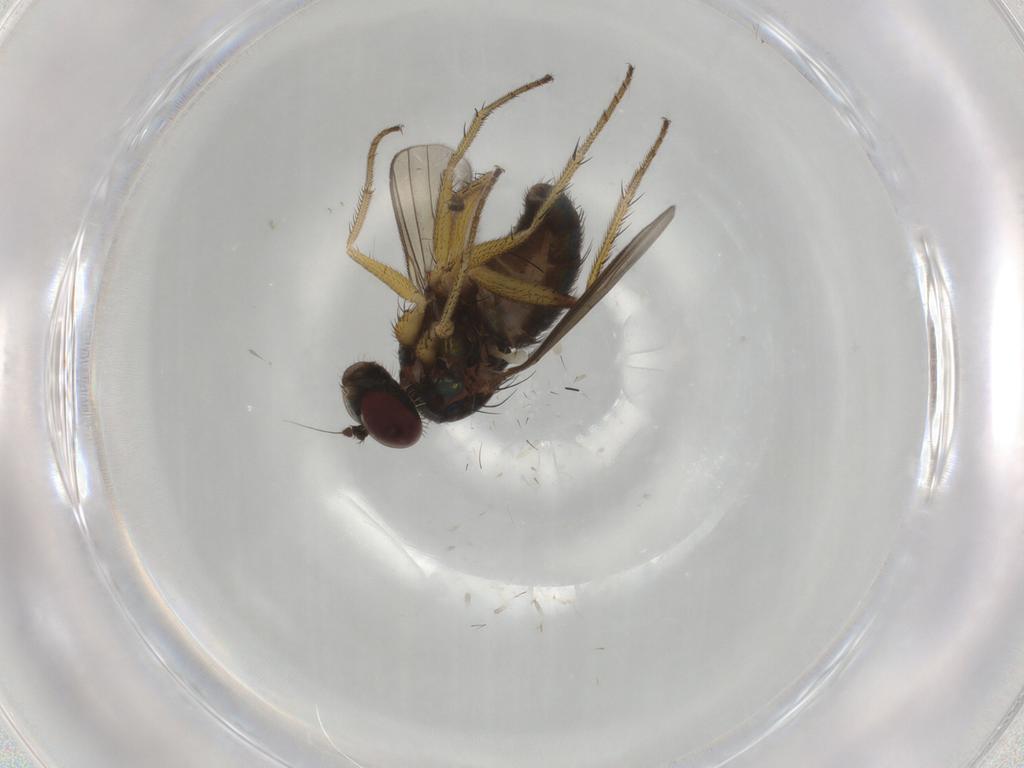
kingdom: Animalia
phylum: Arthropoda
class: Insecta
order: Diptera
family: Dolichopodidae
